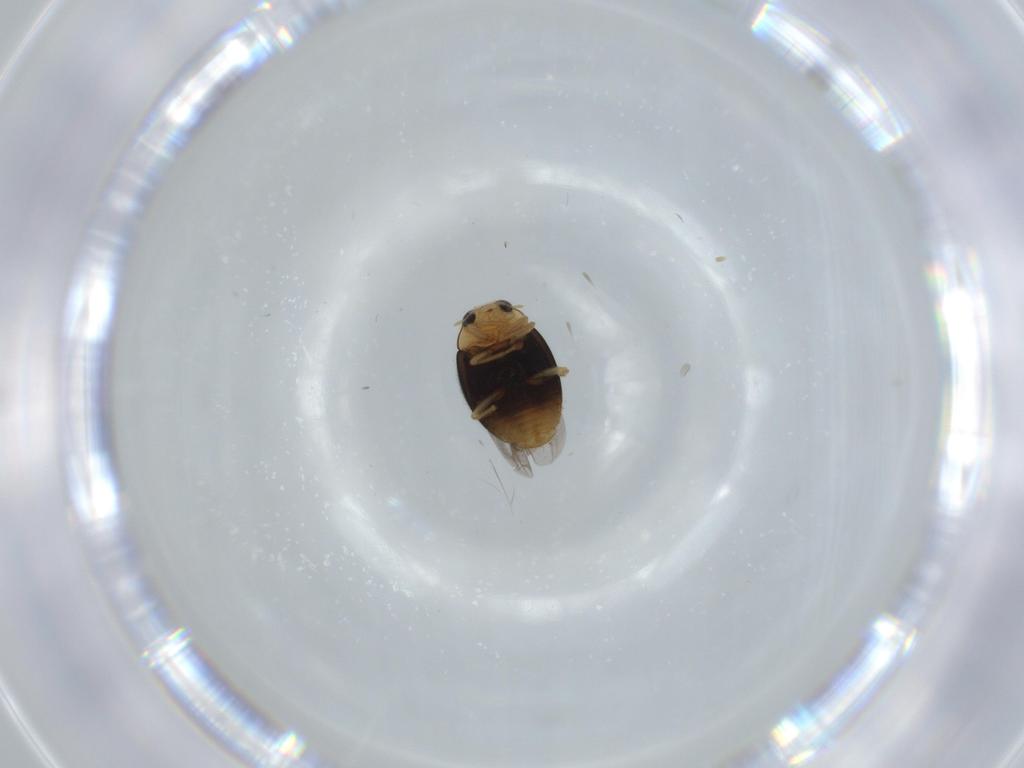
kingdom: Animalia
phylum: Arthropoda
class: Insecta
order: Coleoptera
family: Coccinellidae
